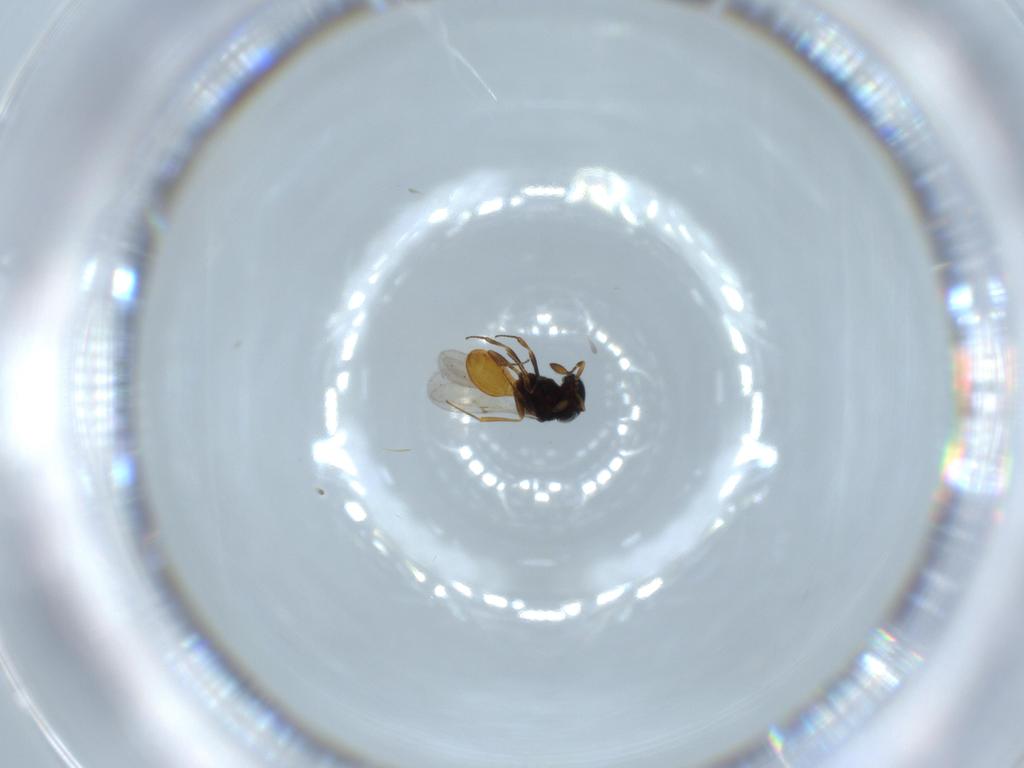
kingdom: Animalia
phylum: Arthropoda
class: Insecta
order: Hymenoptera
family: Scelionidae
